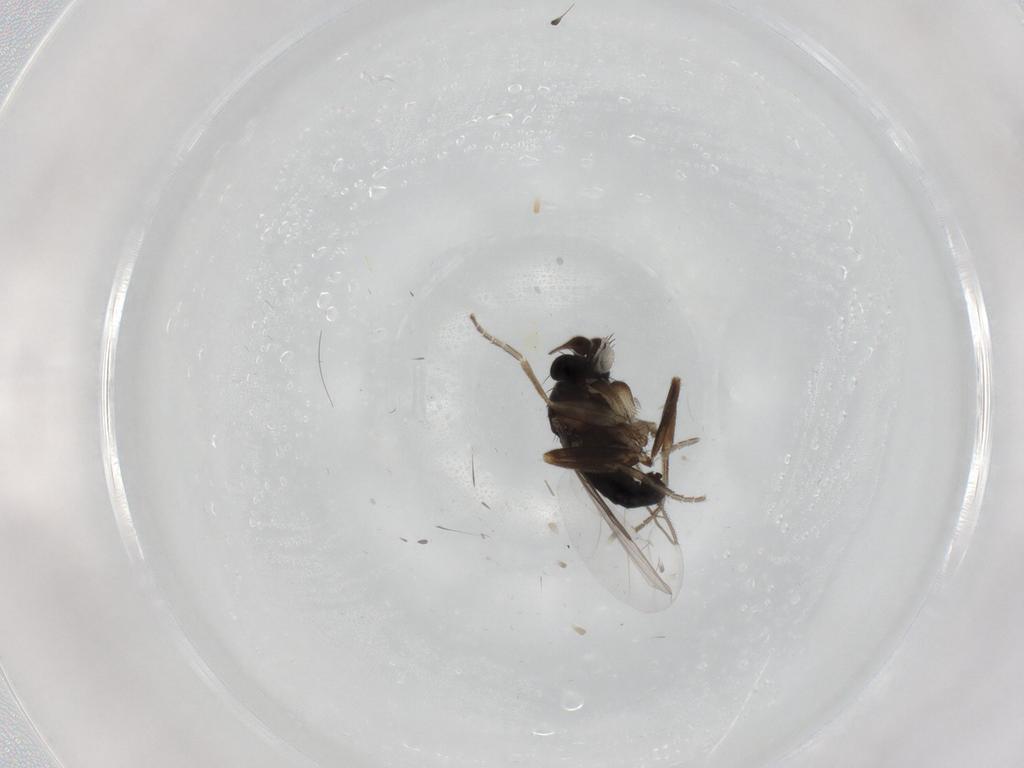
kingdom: Animalia
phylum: Arthropoda
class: Insecta
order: Diptera
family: Phoridae
